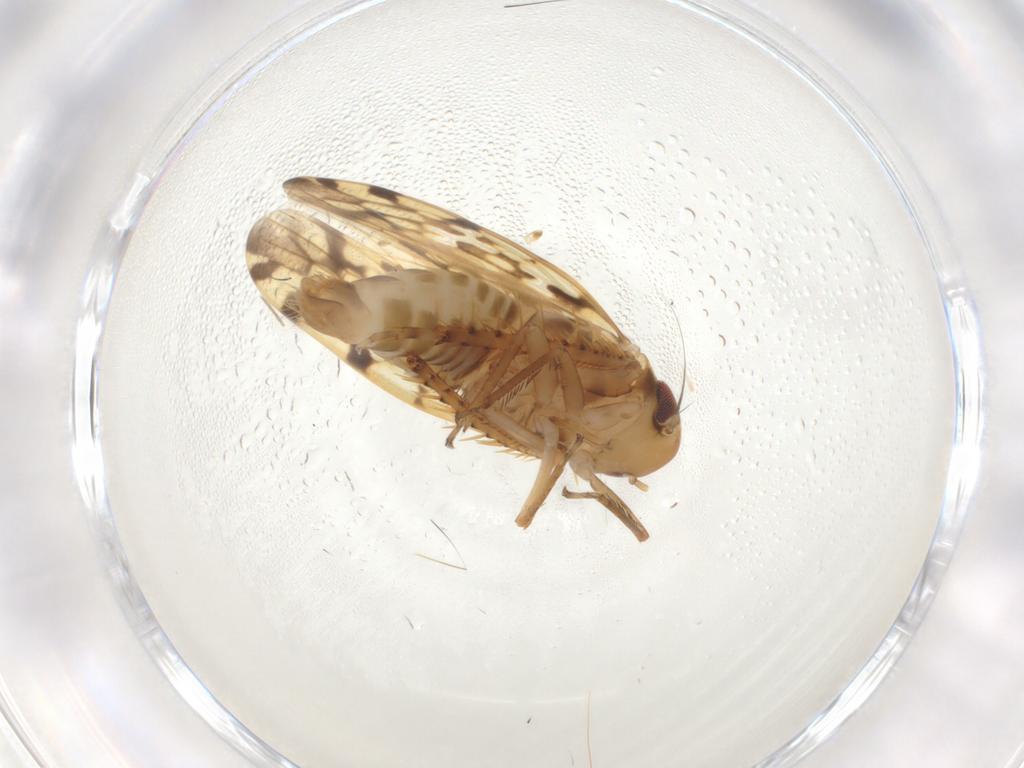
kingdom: Animalia
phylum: Arthropoda
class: Insecta
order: Hemiptera
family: Cicadellidae
